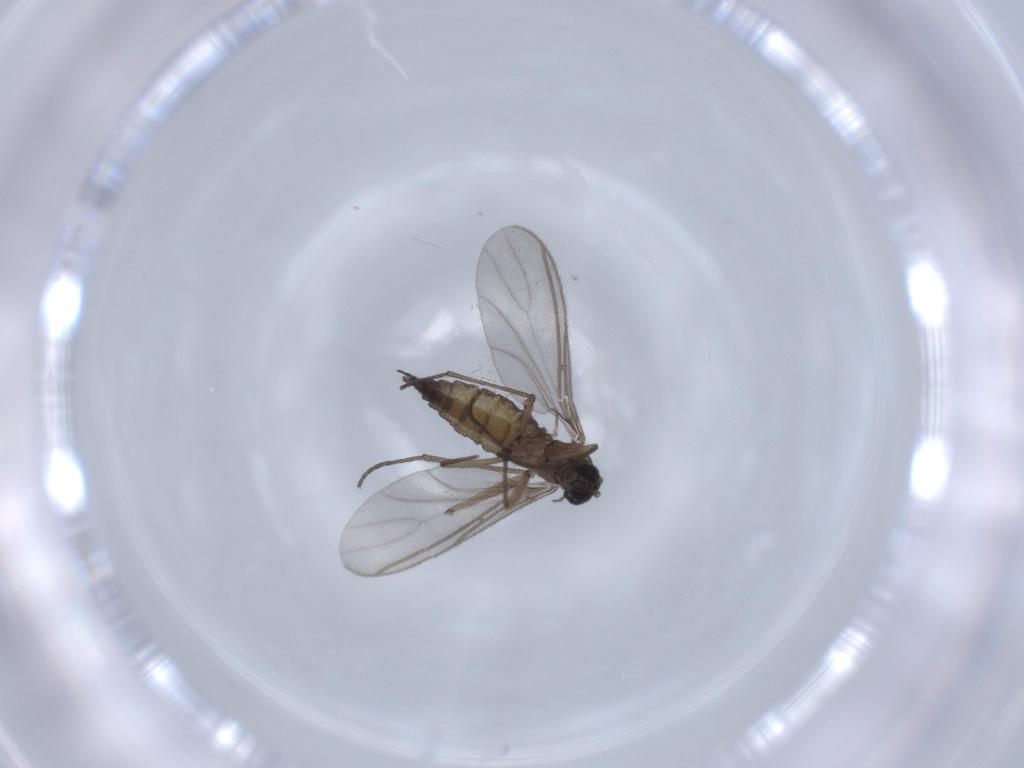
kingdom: Animalia
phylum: Arthropoda
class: Insecta
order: Diptera
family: Sciaridae
